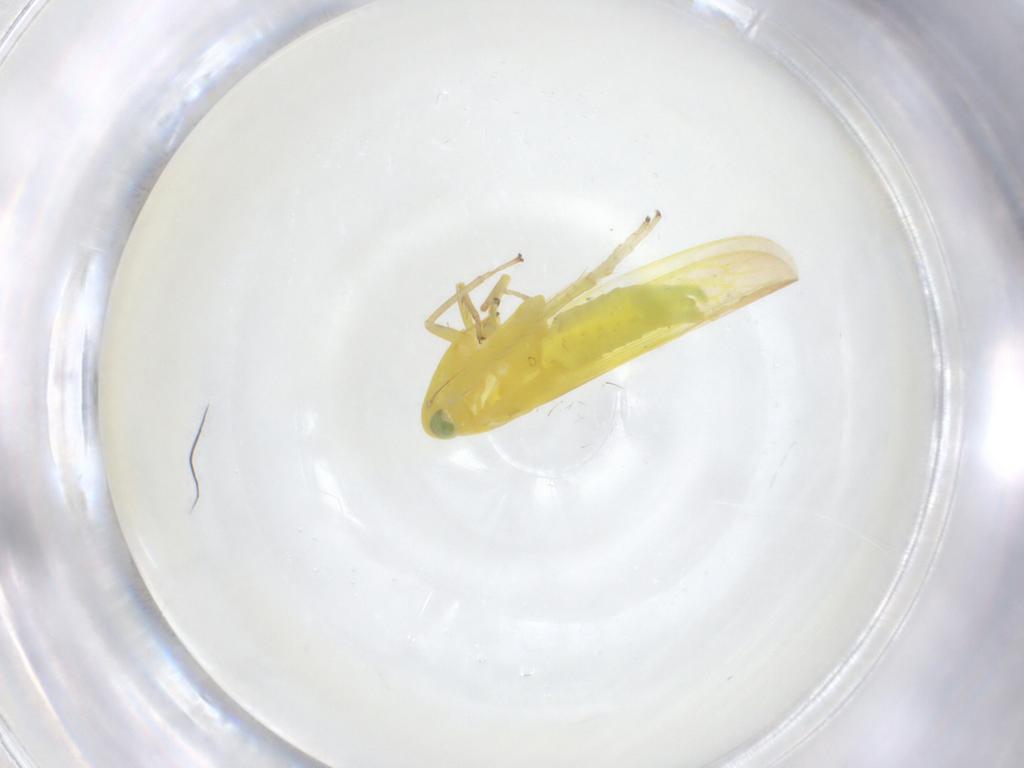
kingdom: Animalia
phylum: Arthropoda
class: Insecta
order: Hemiptera
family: Cicadellidae
